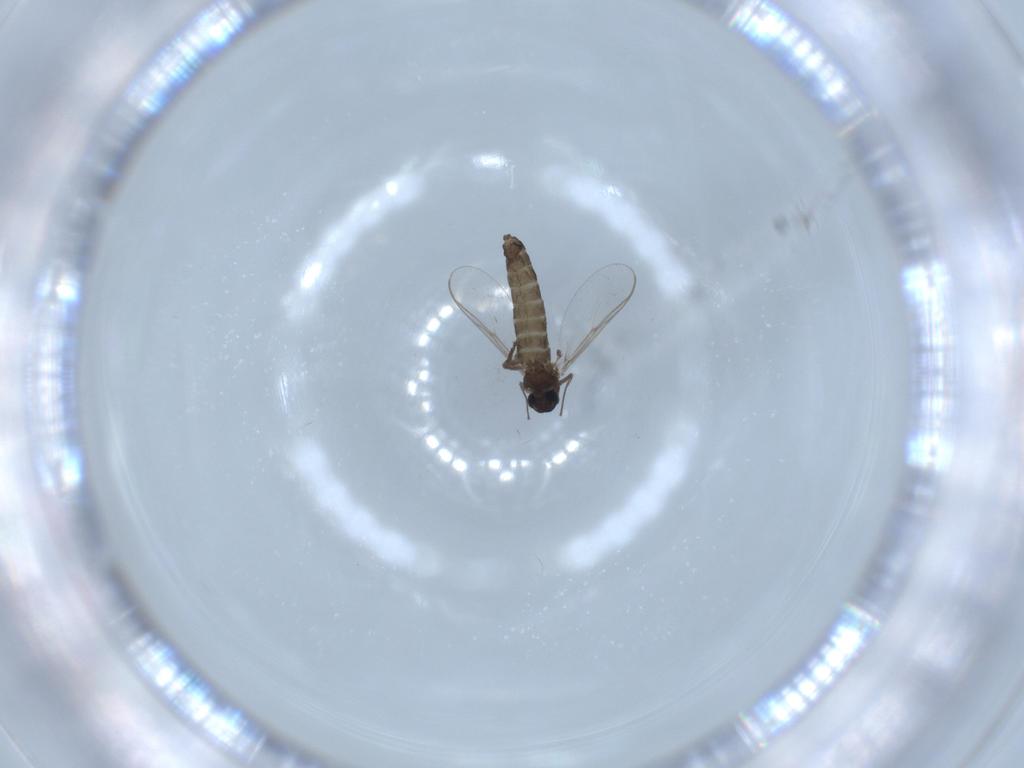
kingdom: Animalia
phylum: Arthropoda
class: Insecta
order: Diptera
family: Chironomidae
